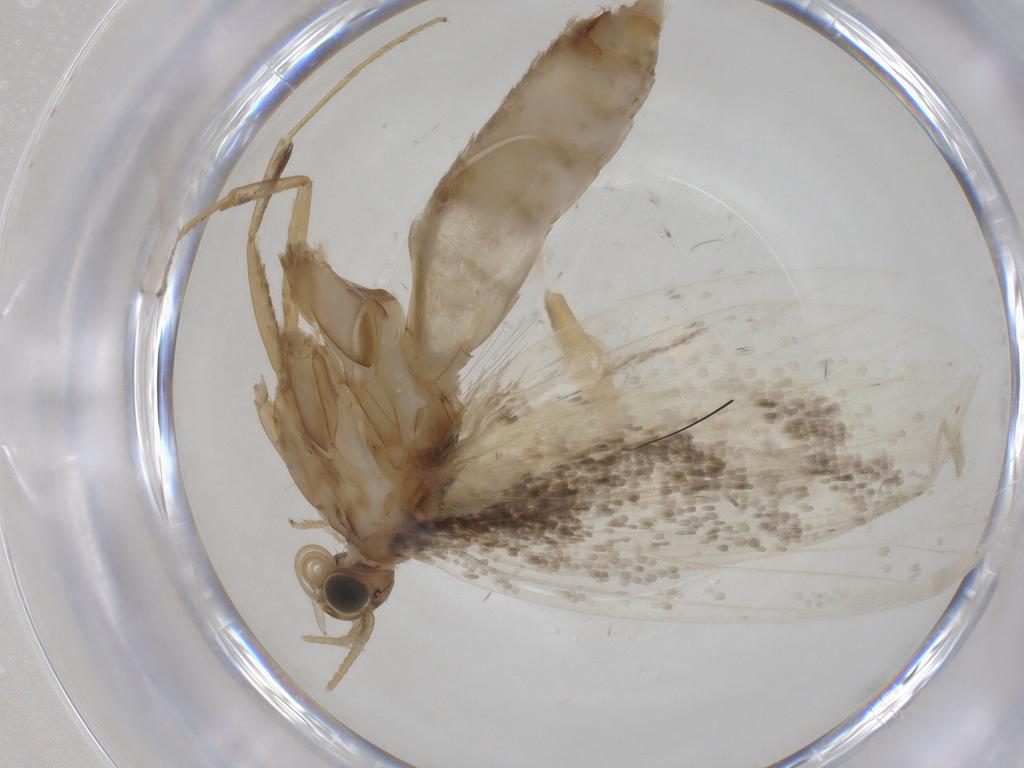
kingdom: Animalia
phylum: Arthropoda
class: Insecta
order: Lepidoptera
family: Plutellidae
